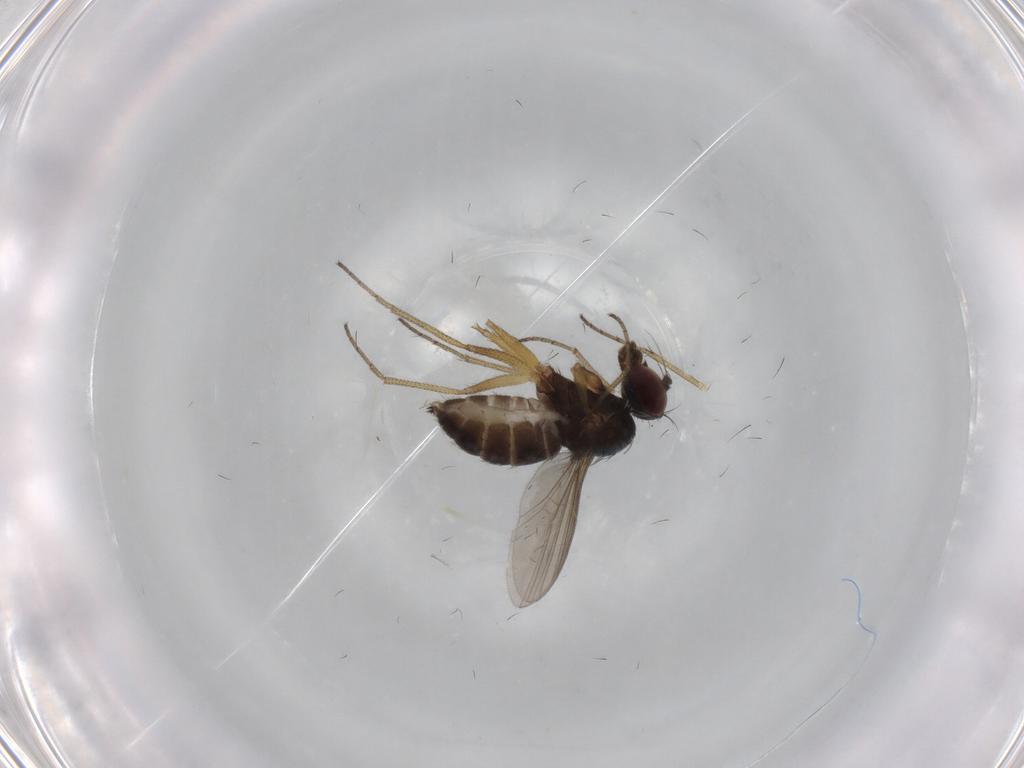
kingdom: Animalia
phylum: Arthropoda
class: Insecta
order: Diptera
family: Dolichopodidae
